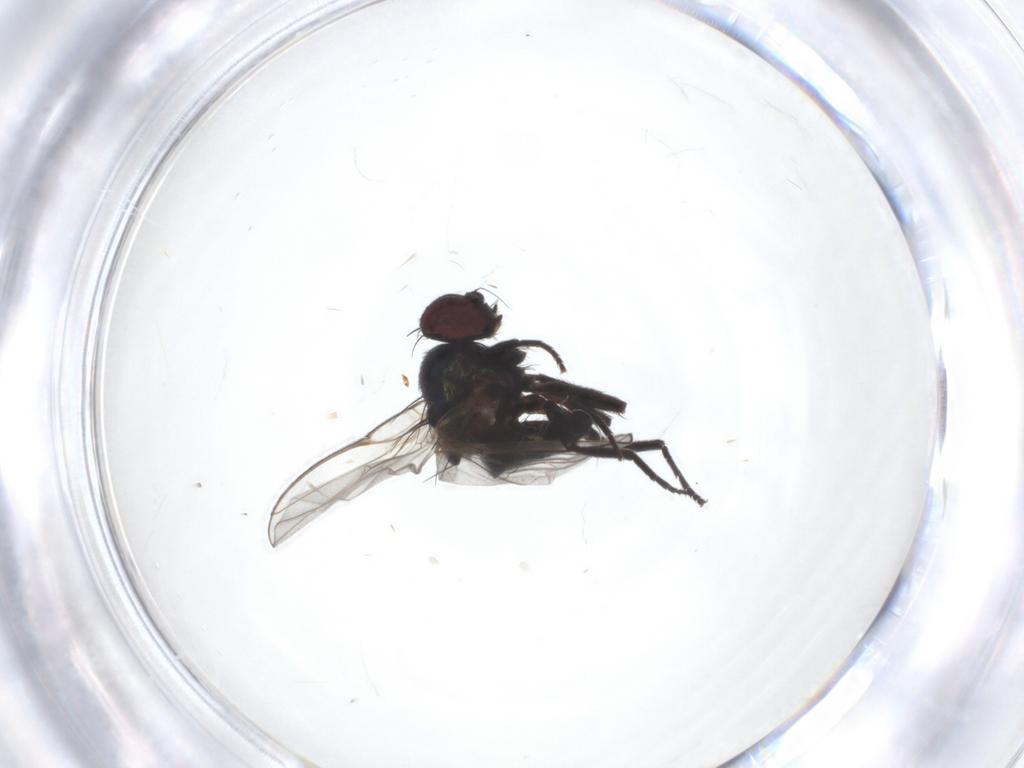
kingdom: Animalia
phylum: Arthropoda
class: Insecta
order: Diptera
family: Agromyzidae
